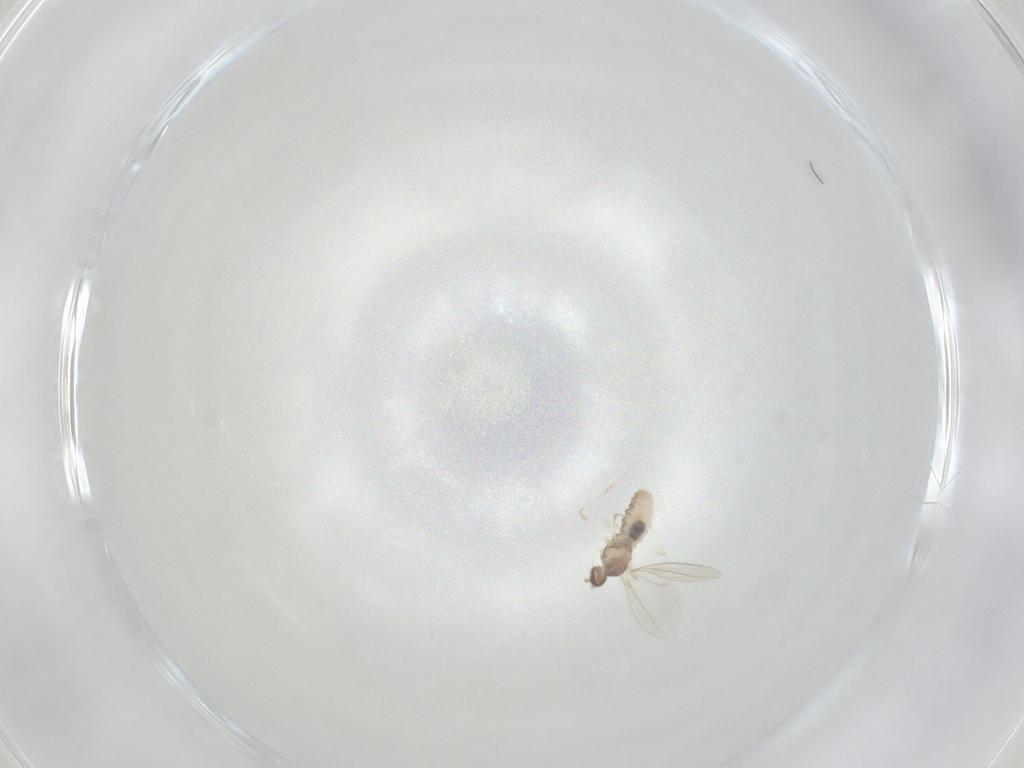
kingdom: Animalia
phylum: Arthropoda
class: Insecta
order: Diptera
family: Cecidomyiidae
